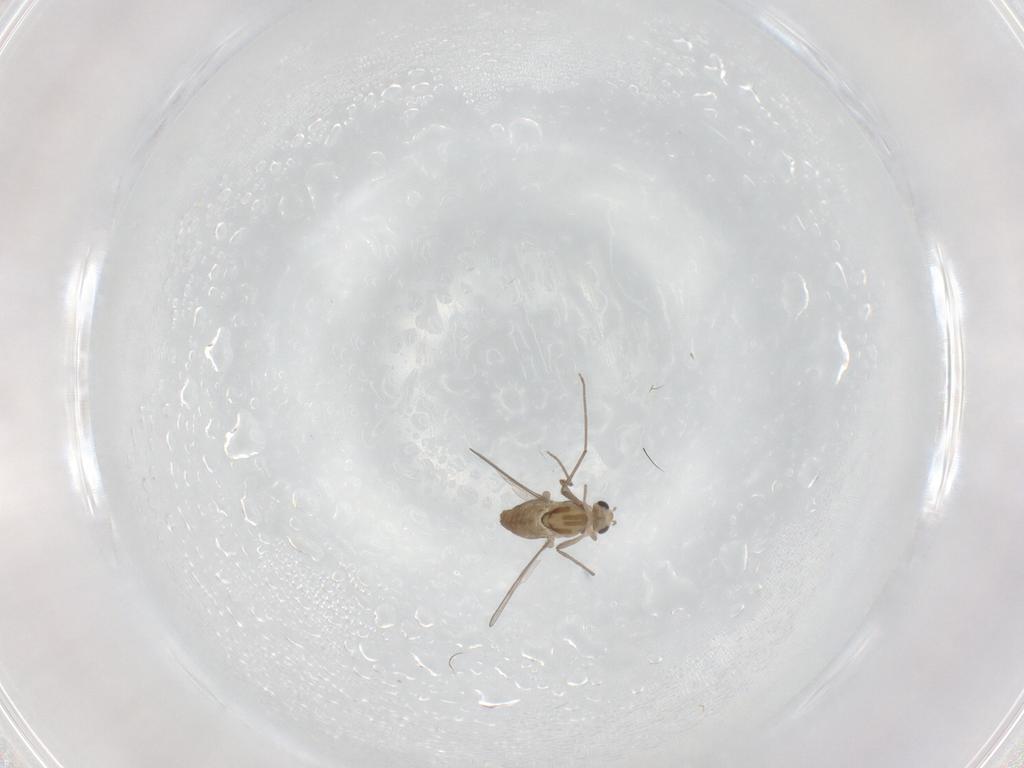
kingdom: Animalia
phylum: Arthropoda
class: Insecta
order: Diptera
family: Chironomidae
